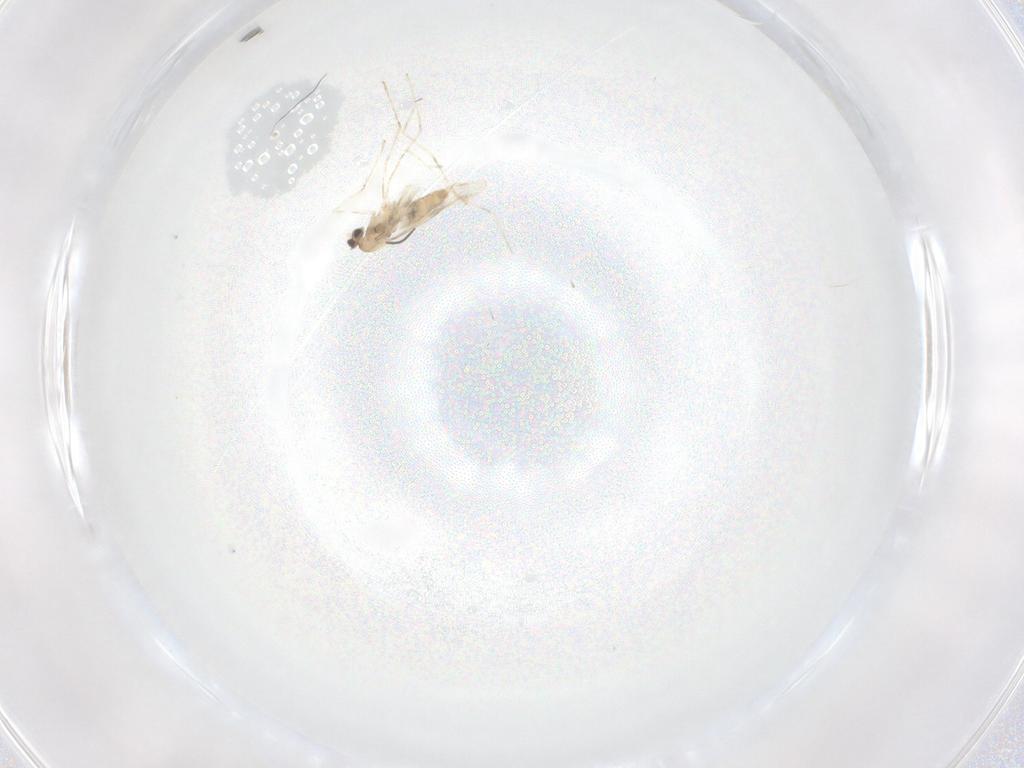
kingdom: Animalia
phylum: Arthropoda
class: Insecta
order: Diptera
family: Cecidomyiidae
